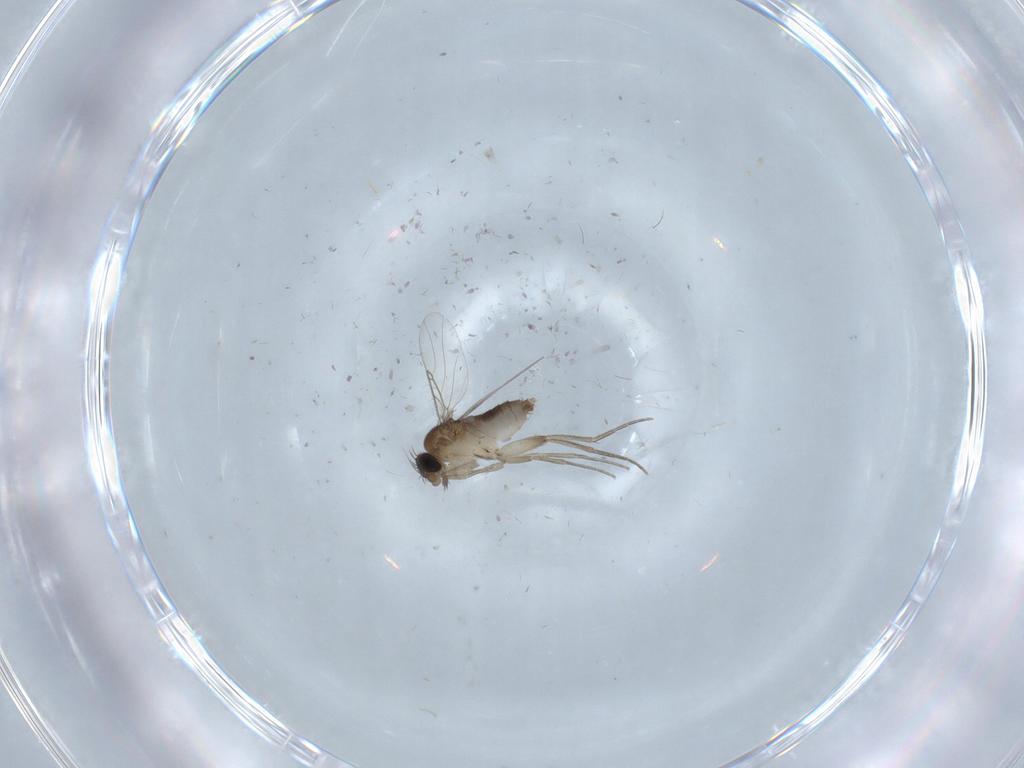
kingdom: Animalia
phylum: Arthropoda
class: Insecta
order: Diptera
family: Phoridae
